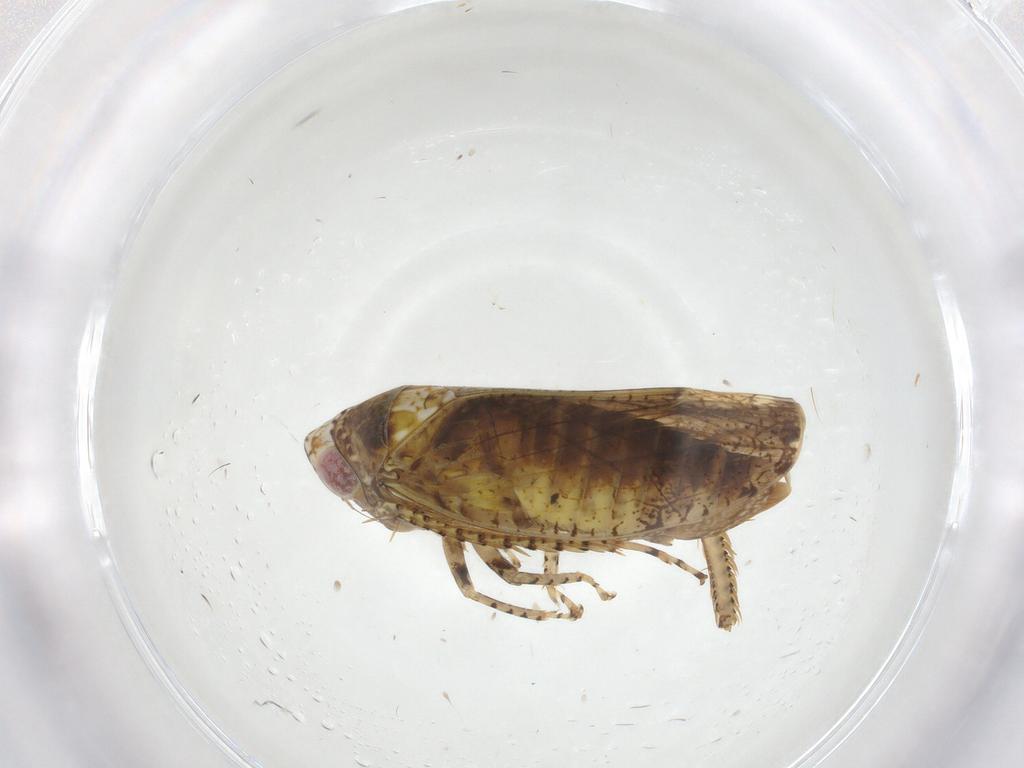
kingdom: Animalia
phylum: Arthropoda
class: Insecta
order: Hemiptera
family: Cicadellidae
